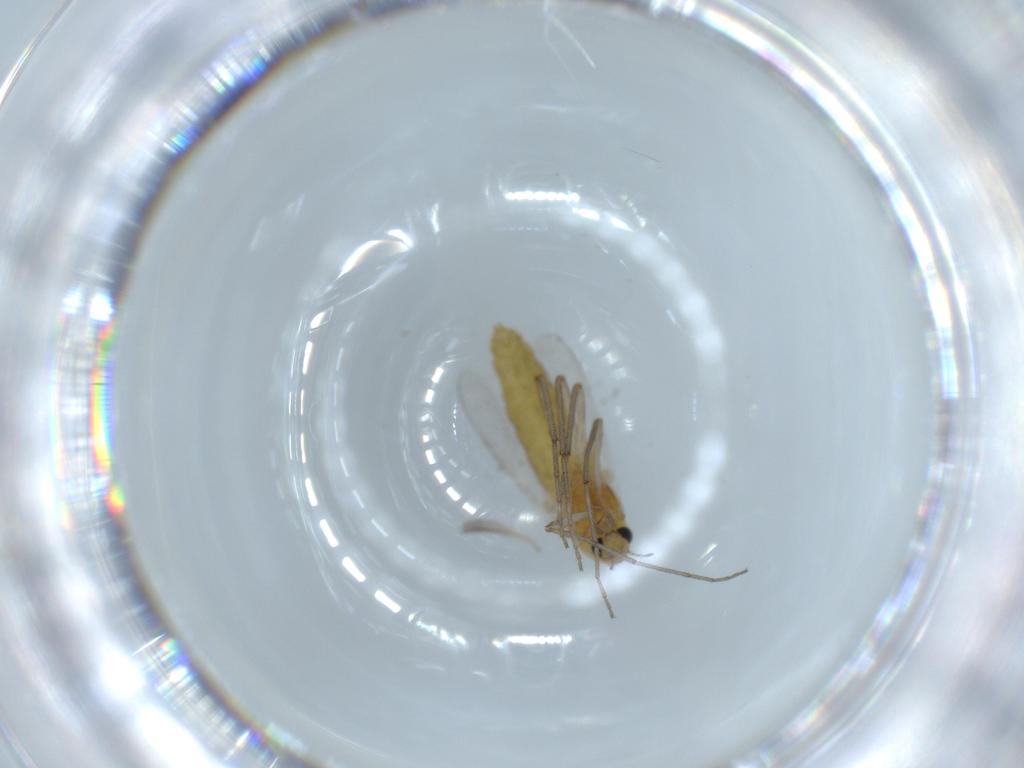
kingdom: Animalia
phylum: Arthropoda
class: Insecta
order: Diptera
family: Chironomidae
